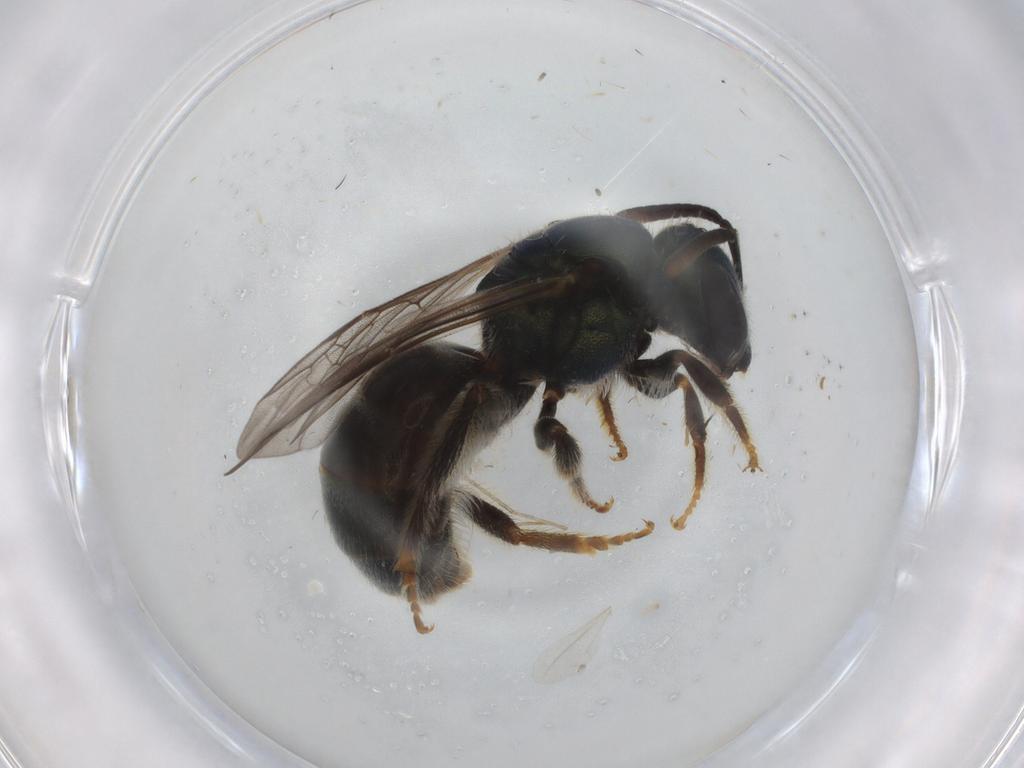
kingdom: Animalia
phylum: Arthropoda
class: Insecta
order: Hymenoptera
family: Halictidae
